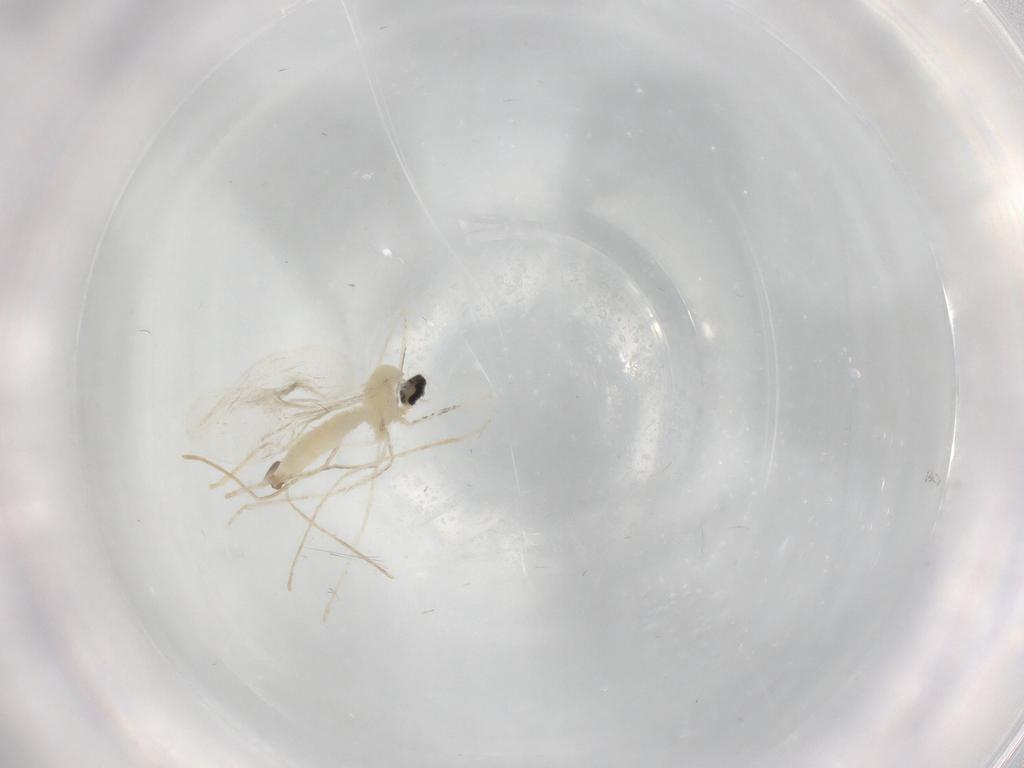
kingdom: Animalia
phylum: Arthropoda
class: Insecta
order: Diptera
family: Cecidomyiidae
